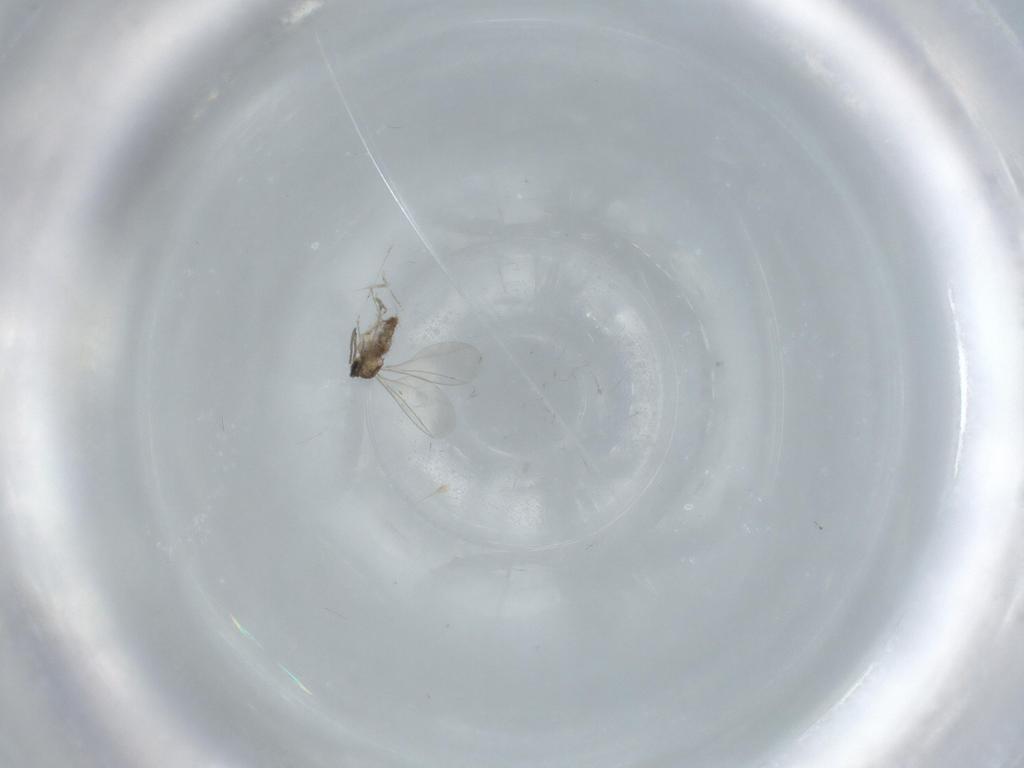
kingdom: Animalia
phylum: Arthropoda
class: Insecta
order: Diptera
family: Cecidomyiidae
